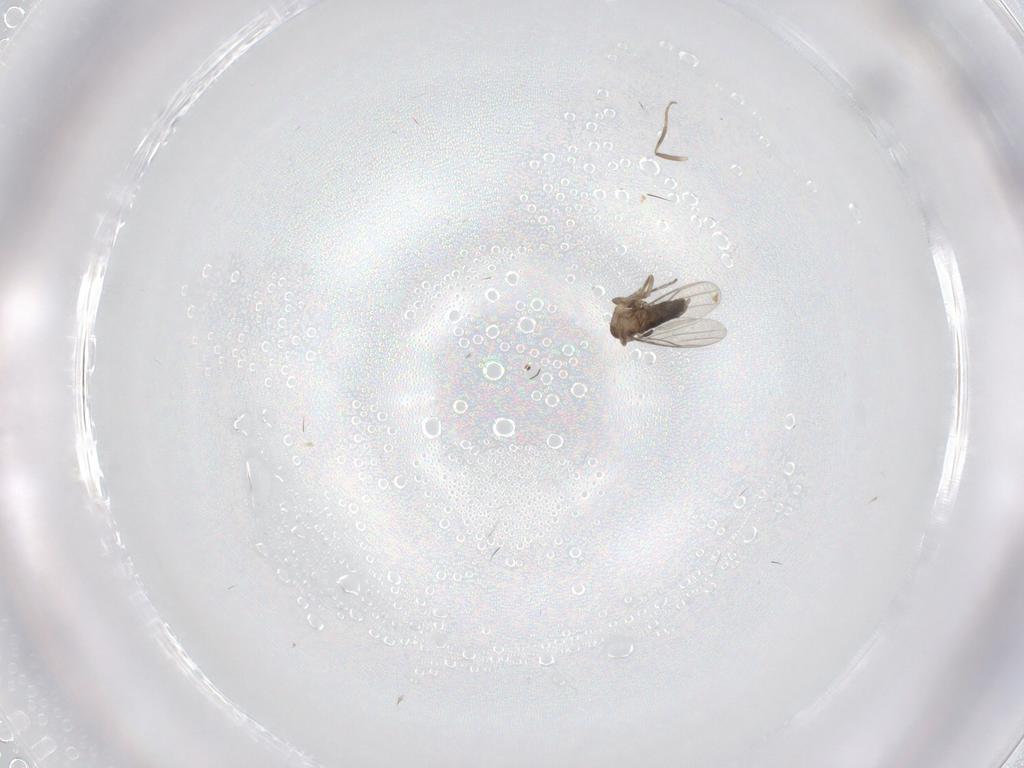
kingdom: Animalia
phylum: Arthropoda
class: Insecta
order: Diptera
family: Phoridae
